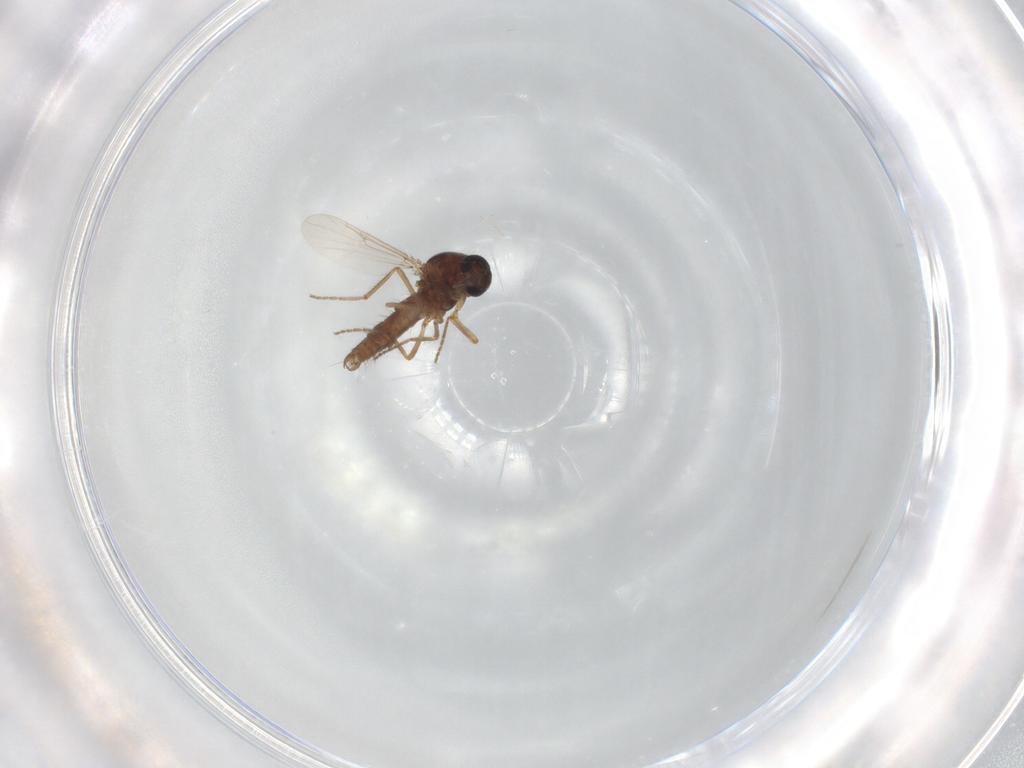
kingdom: Animalia
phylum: Arthropoda
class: Insecta
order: Diptera
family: Ceratopogonidae
